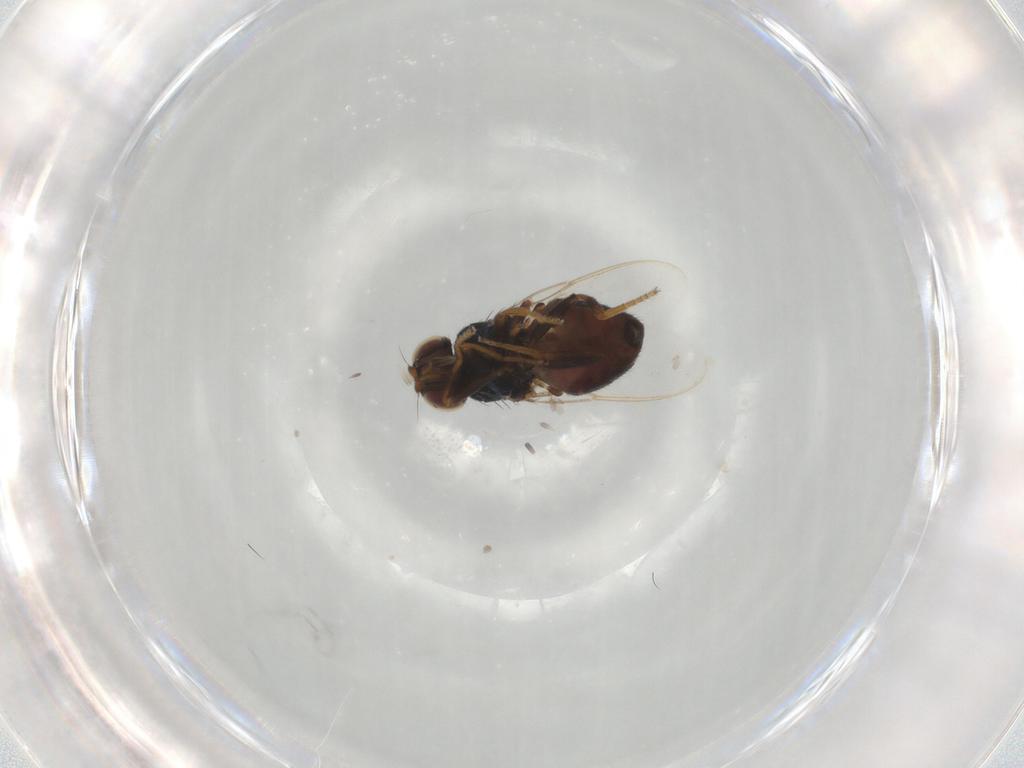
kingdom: Animalia
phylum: Arthropoda
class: Insecta
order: Diptera
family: Chloropidae
